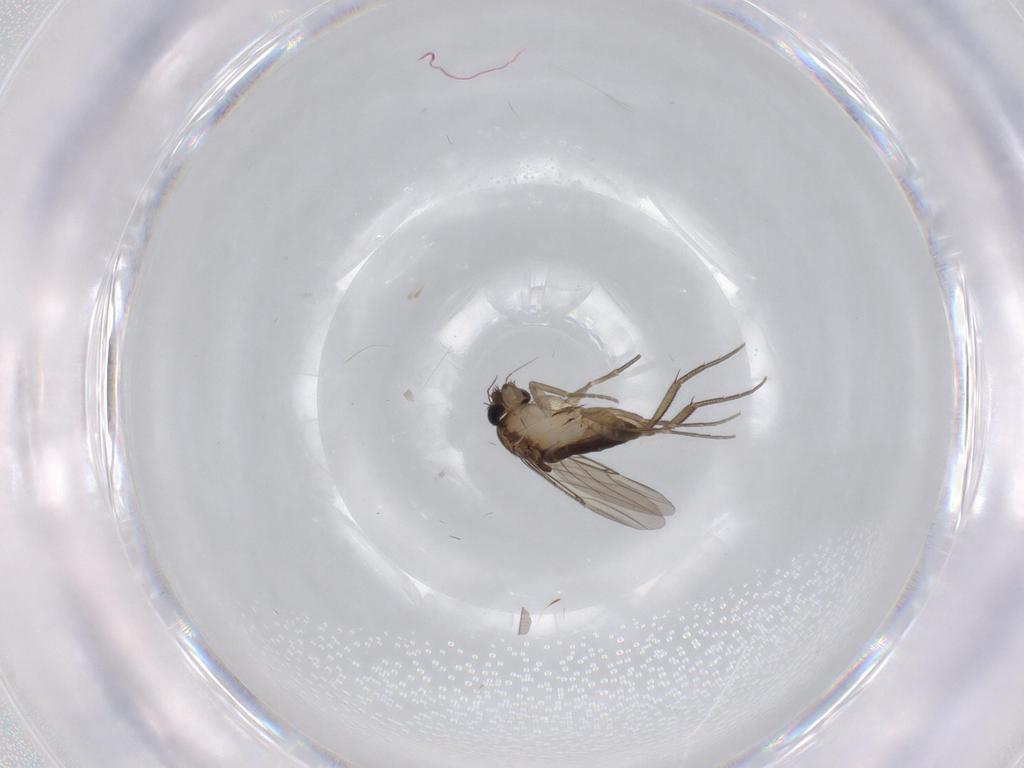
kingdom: Animalia
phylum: Arthropoda
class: Insecta
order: Diptera
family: Phoridae
